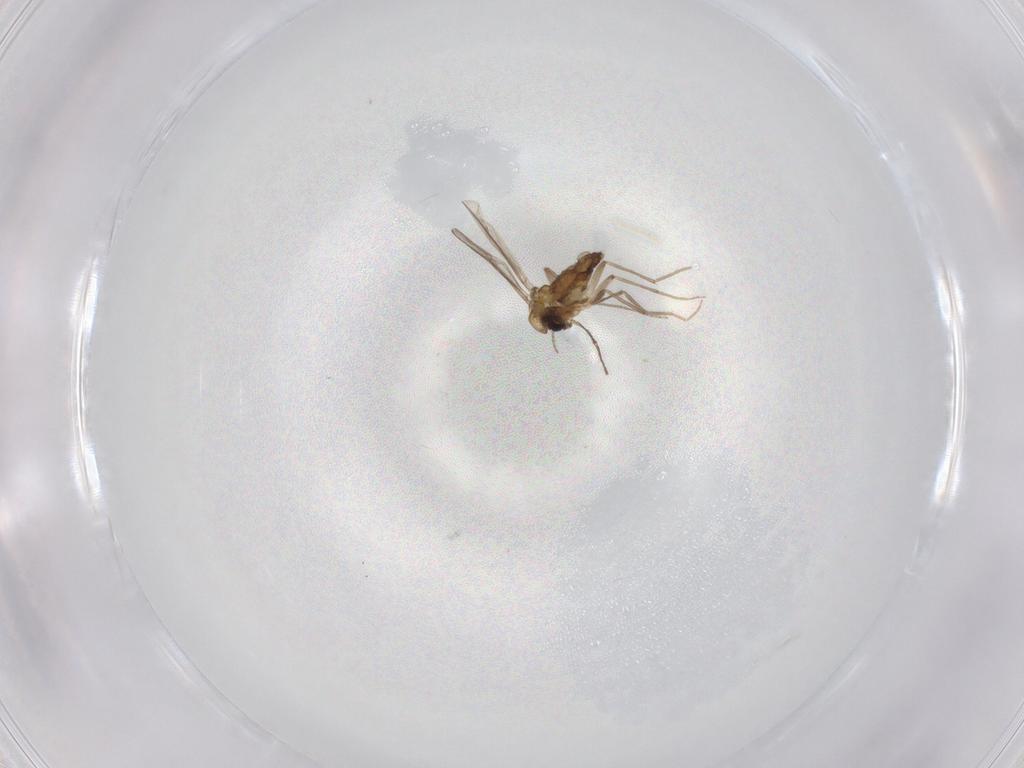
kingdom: Animalia
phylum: Arthropoda
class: Insecta
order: Diptera
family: Chironomidae
